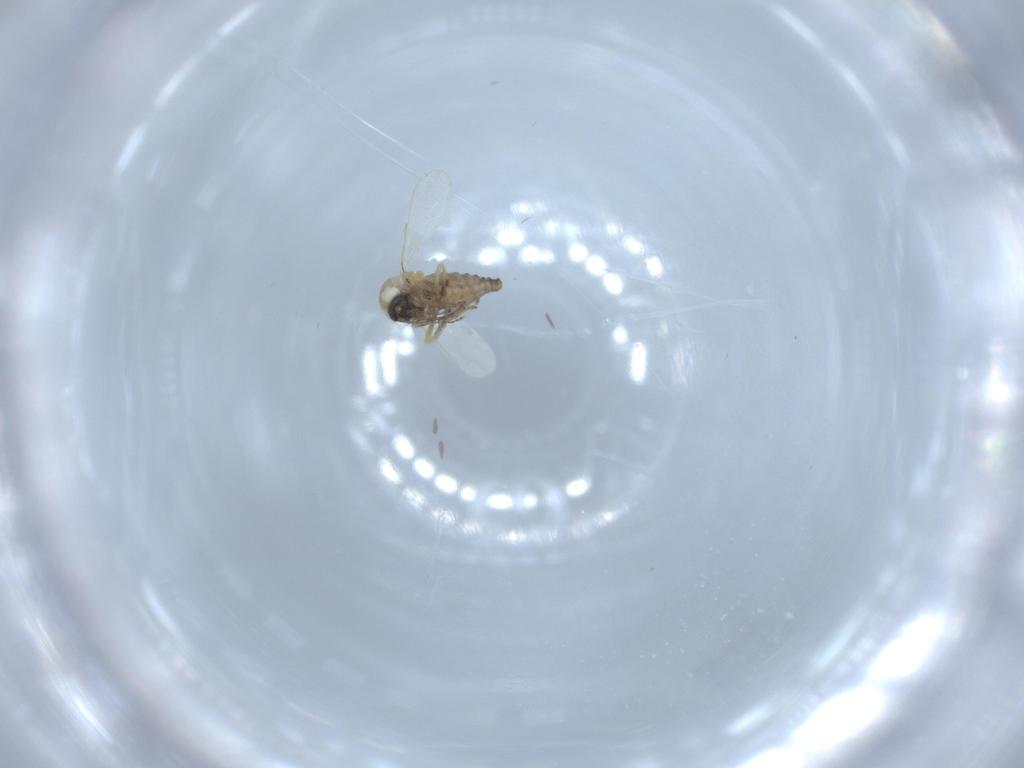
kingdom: Animalia
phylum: Arthropoda
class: Insecta
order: Diptera
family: Ceratopogonidae
